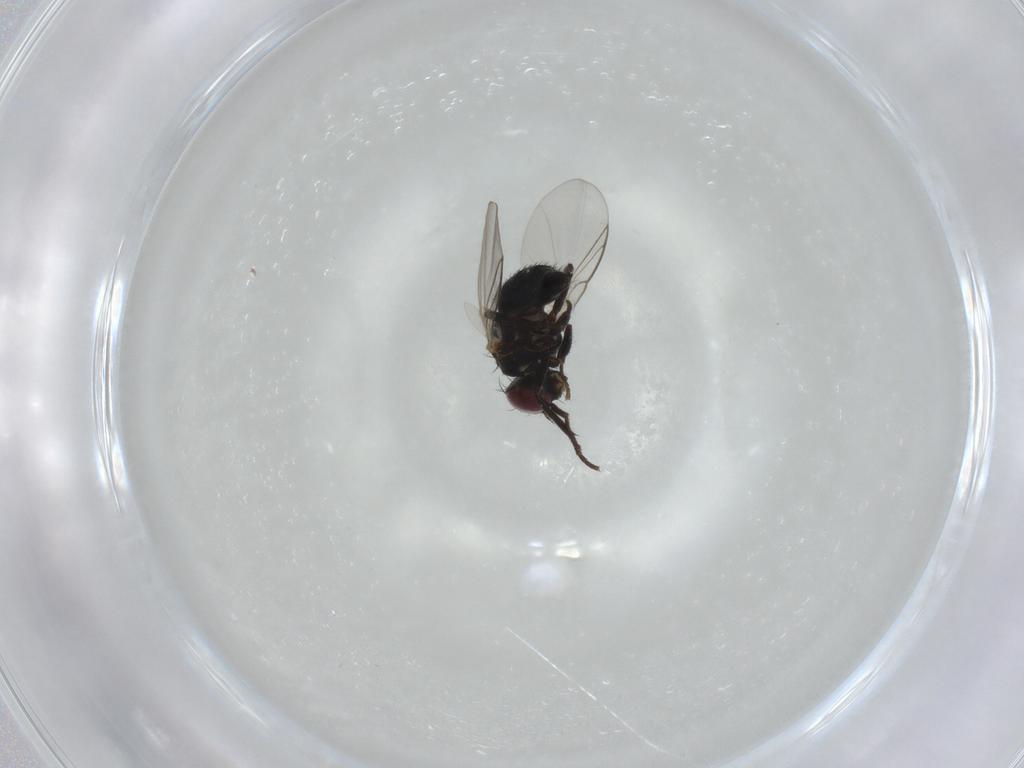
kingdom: Animalia
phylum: Arthropoda
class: Insecta
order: Diptera
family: Agromyzidae
